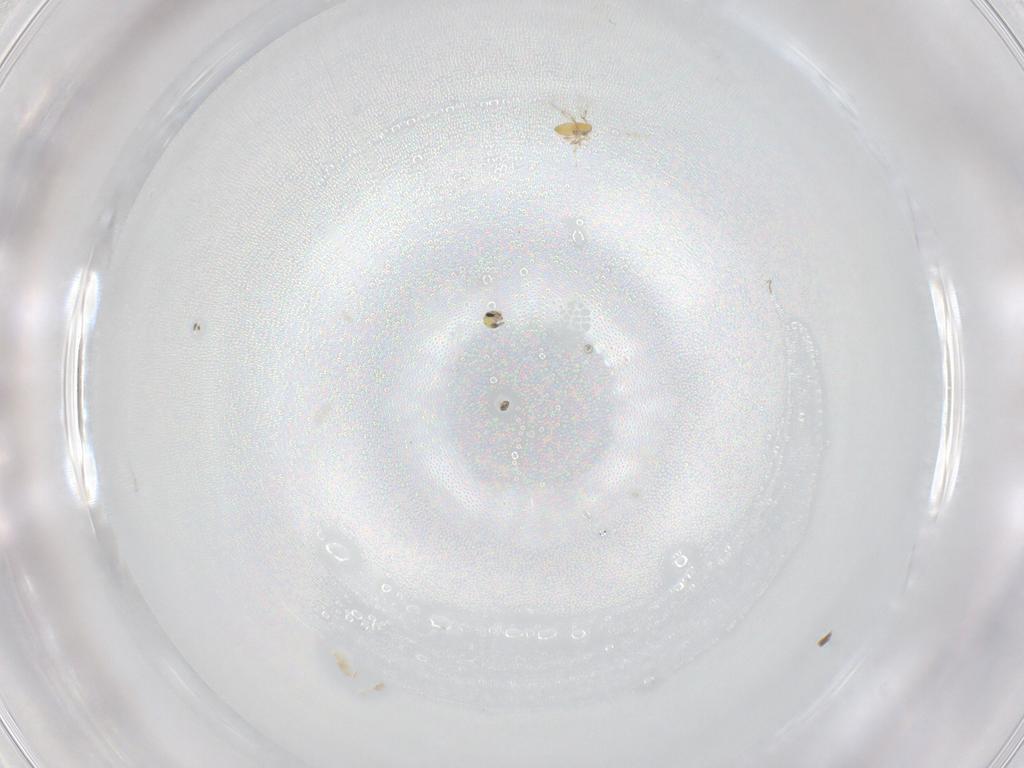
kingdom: Animalia
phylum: Arthropoda
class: Insecta
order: Hymenoptera
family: Trichogrammatidae
